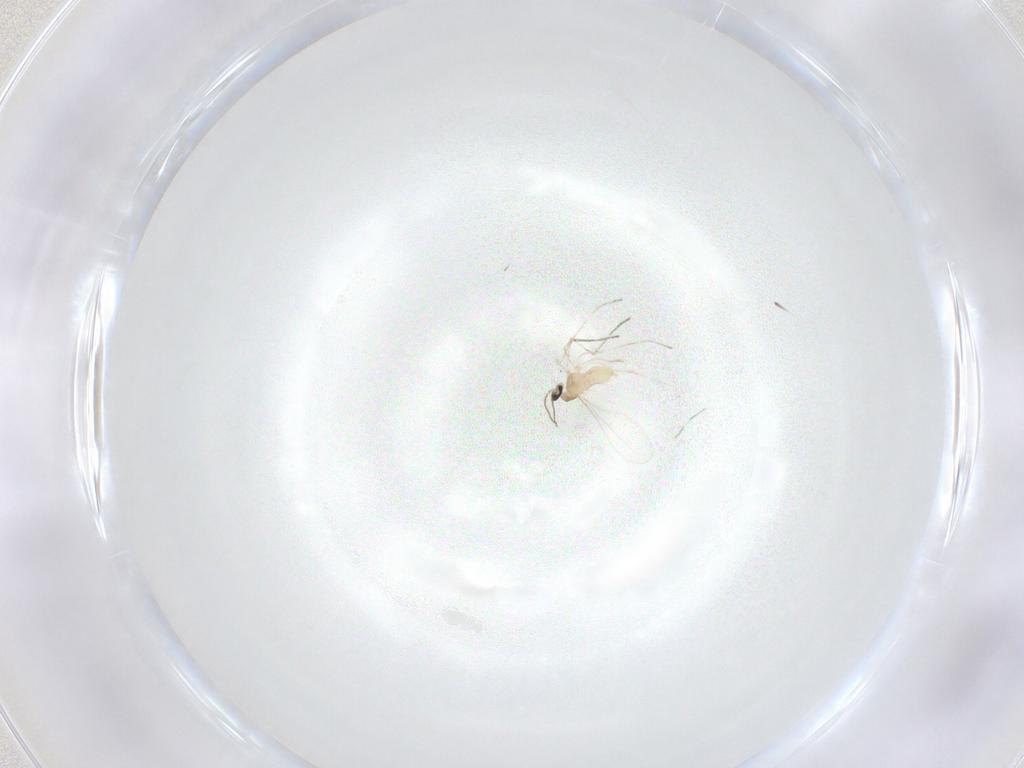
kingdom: Animalia
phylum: Arthropoda
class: Insecta
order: Diptera
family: Cecidomyiidae
